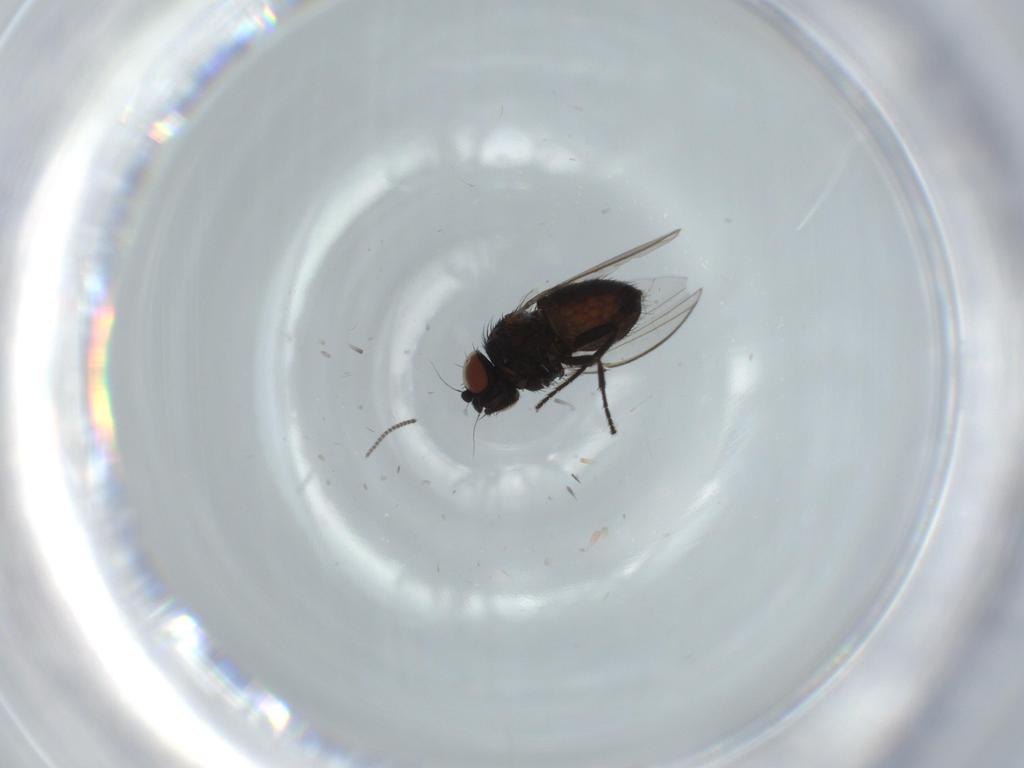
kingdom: Animalia
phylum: Arthropoda
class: Insecta
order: Diptera
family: Milichiidae
